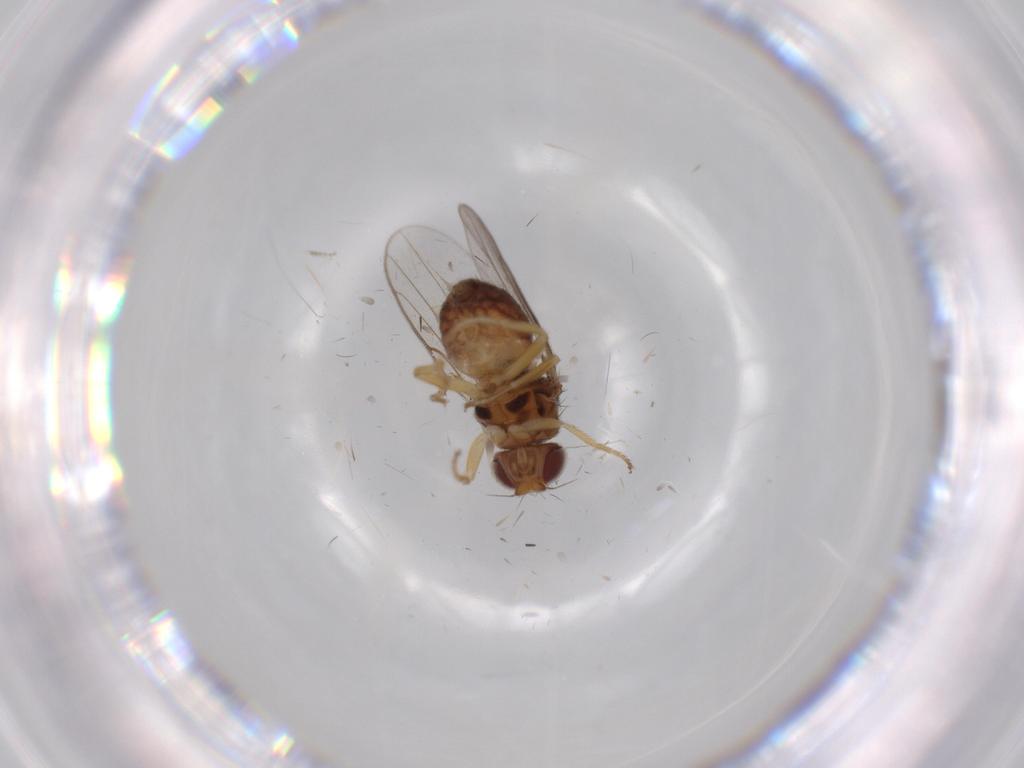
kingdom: Animalia
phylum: Arthropoda
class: Insecta
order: Diptera
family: Chloropidae
